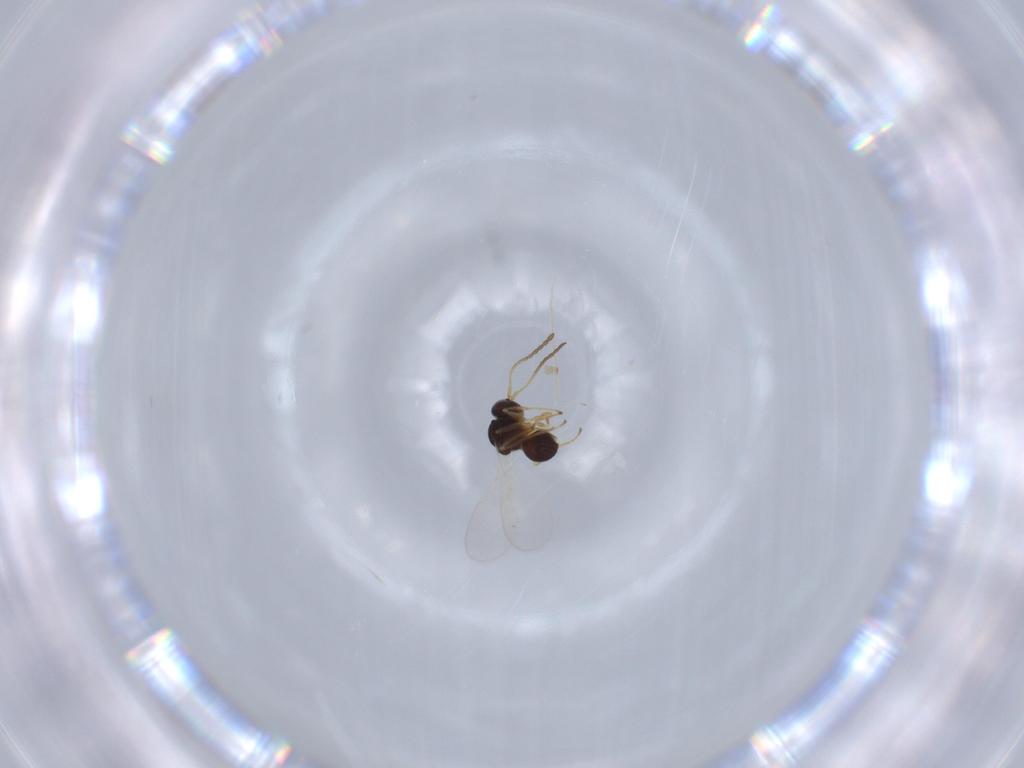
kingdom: Animalia
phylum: Arthropoda
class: Insecta
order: Hymenoptera
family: Figitidae
